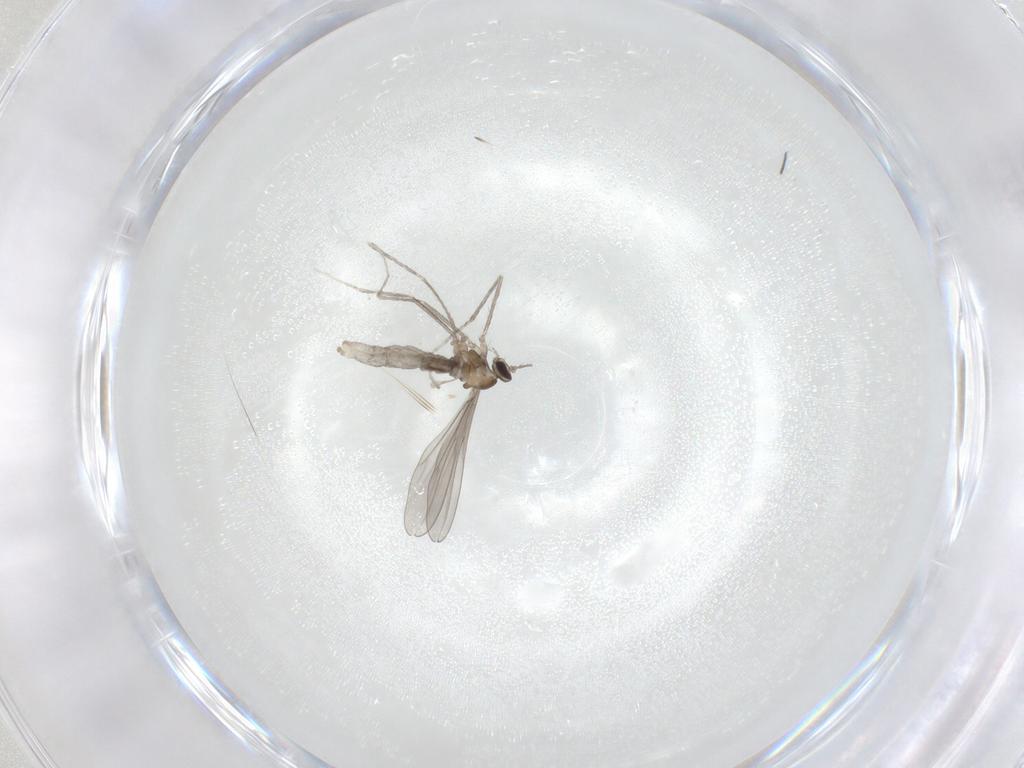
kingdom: Animalia
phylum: Arthropoda
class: Insecta
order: Diptera
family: Cecidomyiidae
